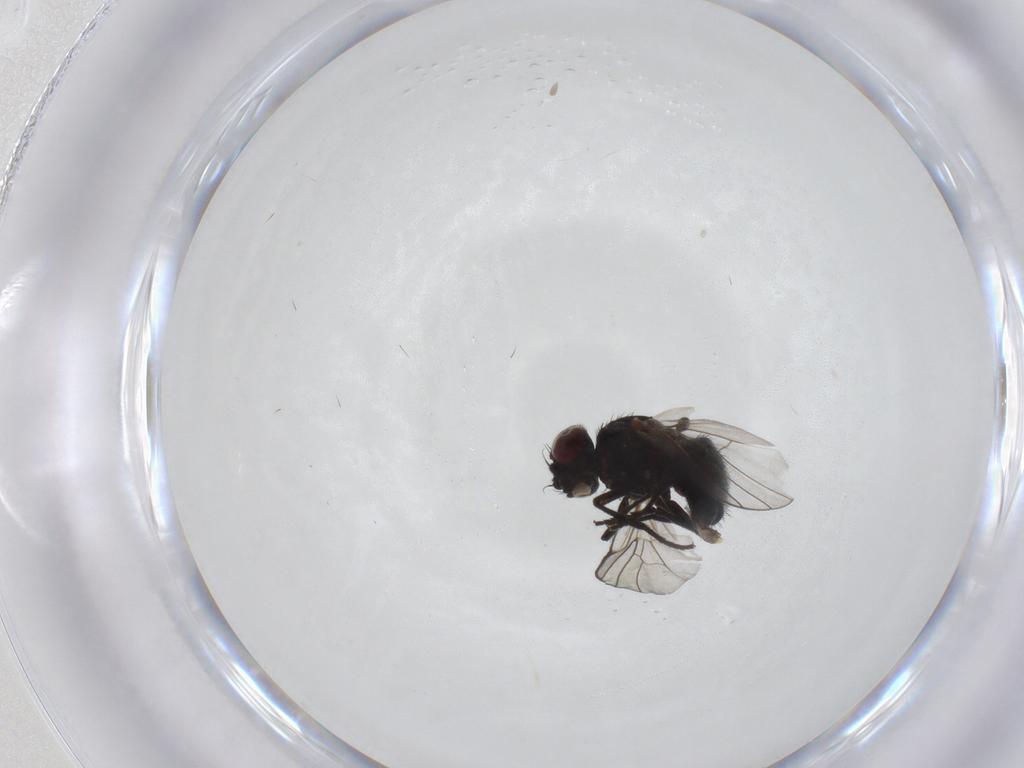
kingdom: Animalia
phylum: Arthropoda
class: Insecta
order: Diptera
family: Agromyzidae
